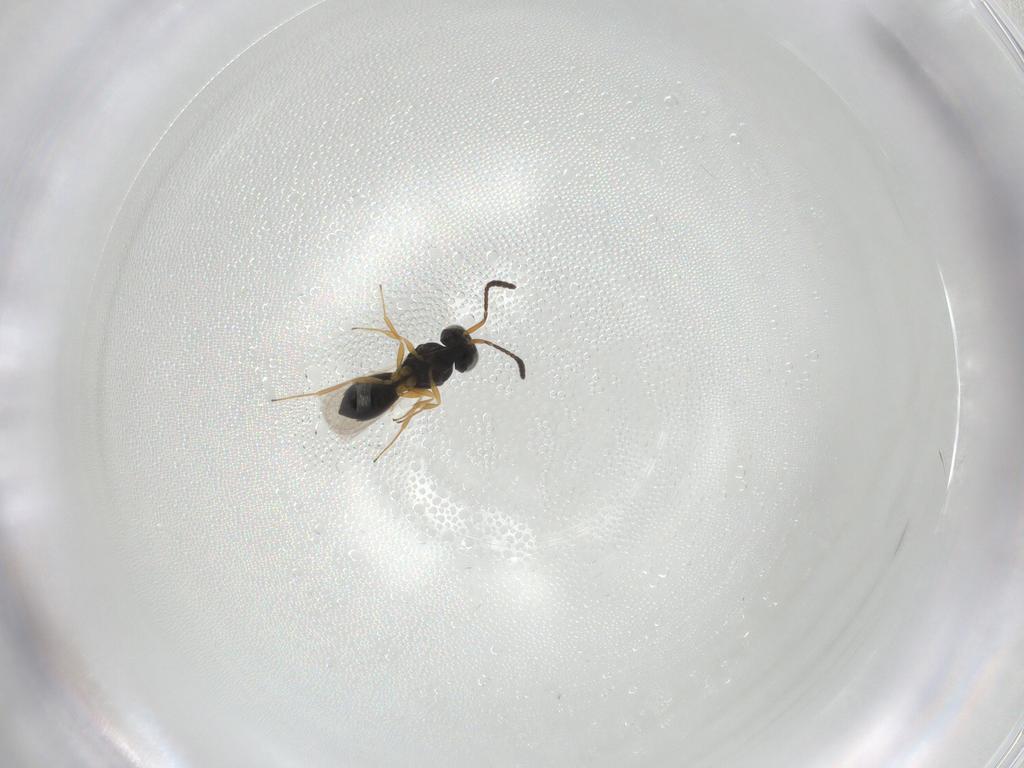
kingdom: Animalia
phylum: Arthropoda
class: Insecta
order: Hymenoptera
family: Scelionidae
